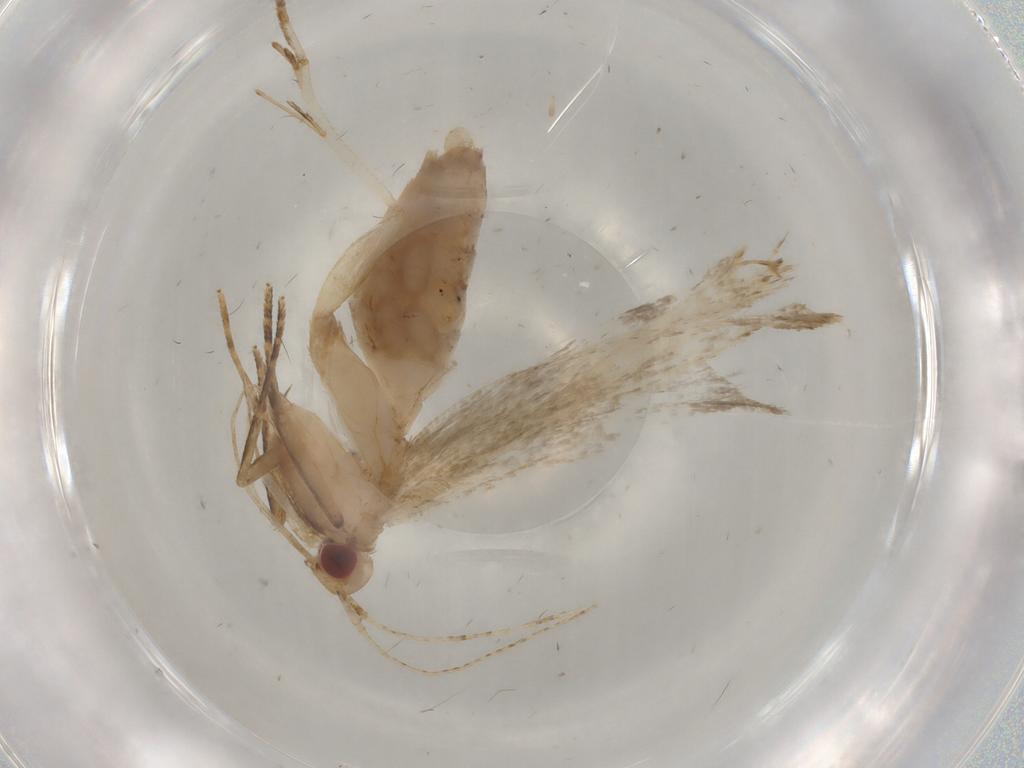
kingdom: Animalia
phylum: Arthropoda
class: Insecta
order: Lepidoptera
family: Gelechiidae
